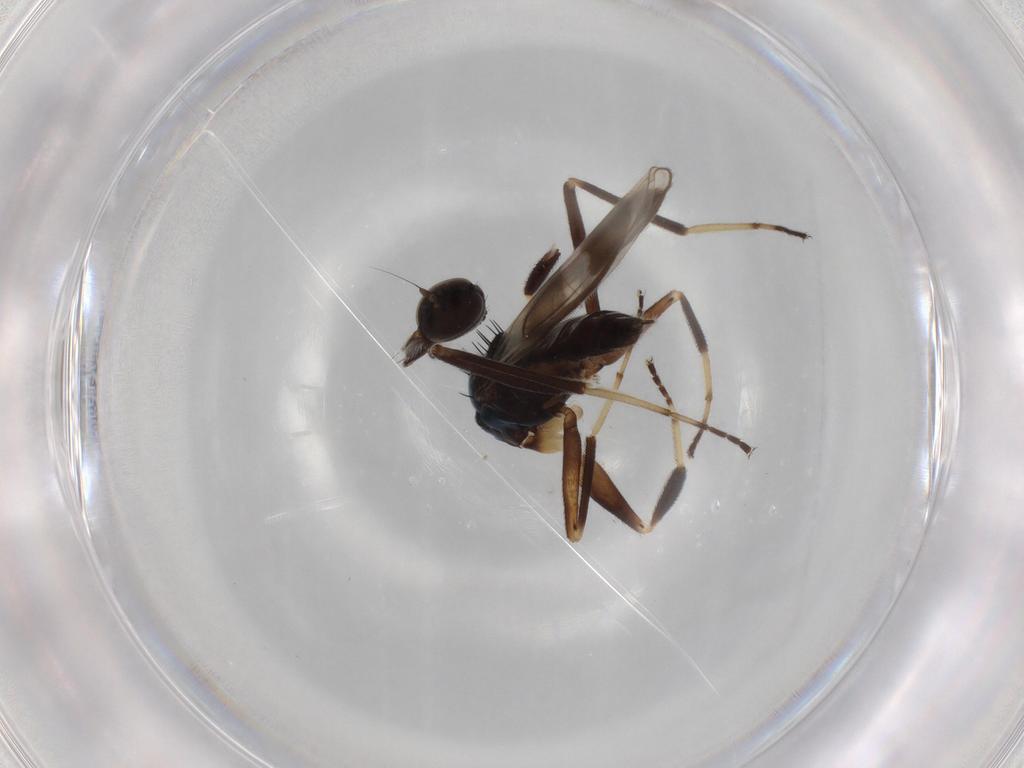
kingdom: Animalia
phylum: Arthropoda
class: Insecta
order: Diptera
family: Hybotidae
